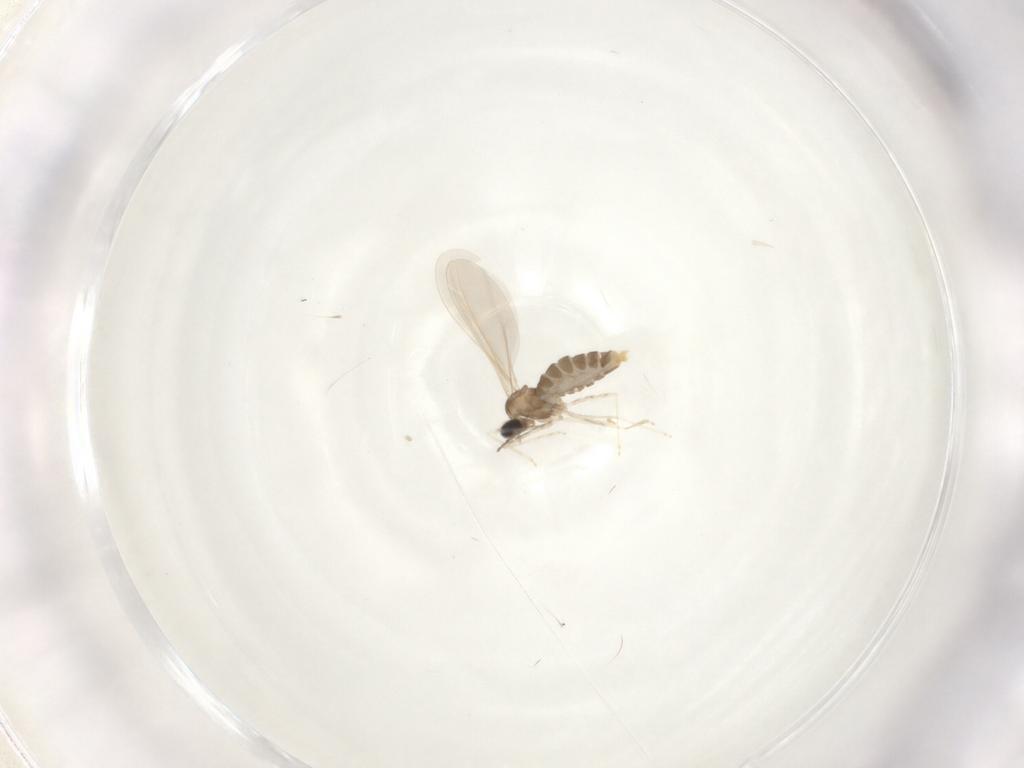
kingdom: Animalia
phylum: Arthropoda
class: Insecta
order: Diptera
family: Cecidomyiidae
